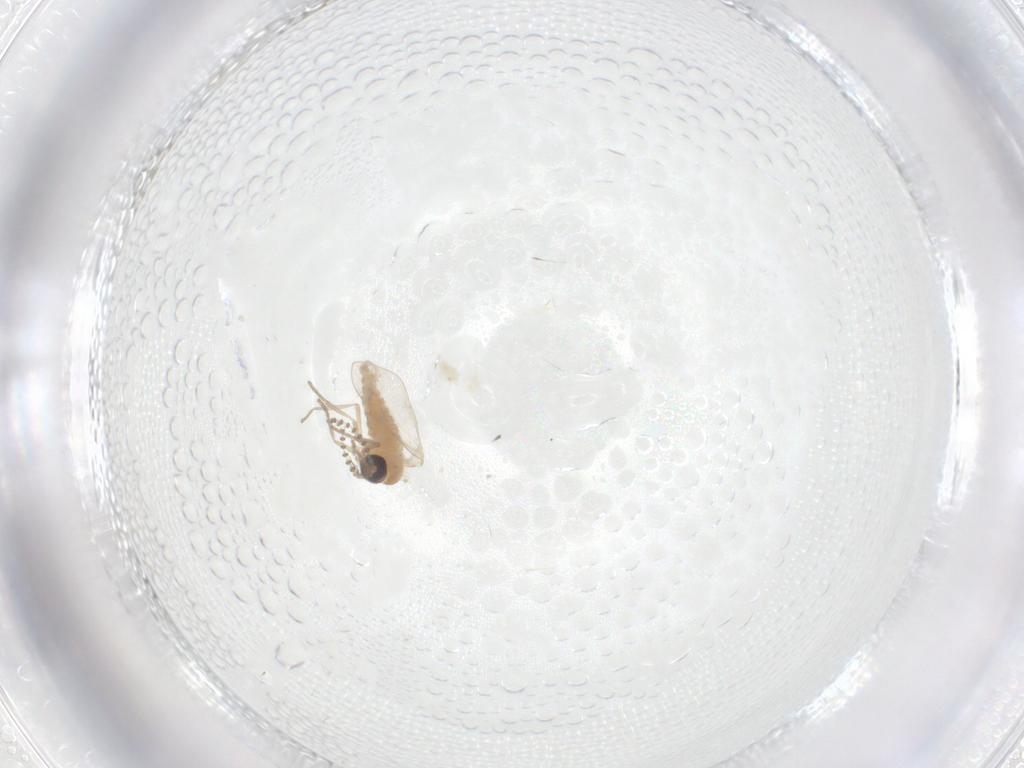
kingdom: Animalia
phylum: Arthropoda
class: Insecta
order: Diptera
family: Psychodidae
